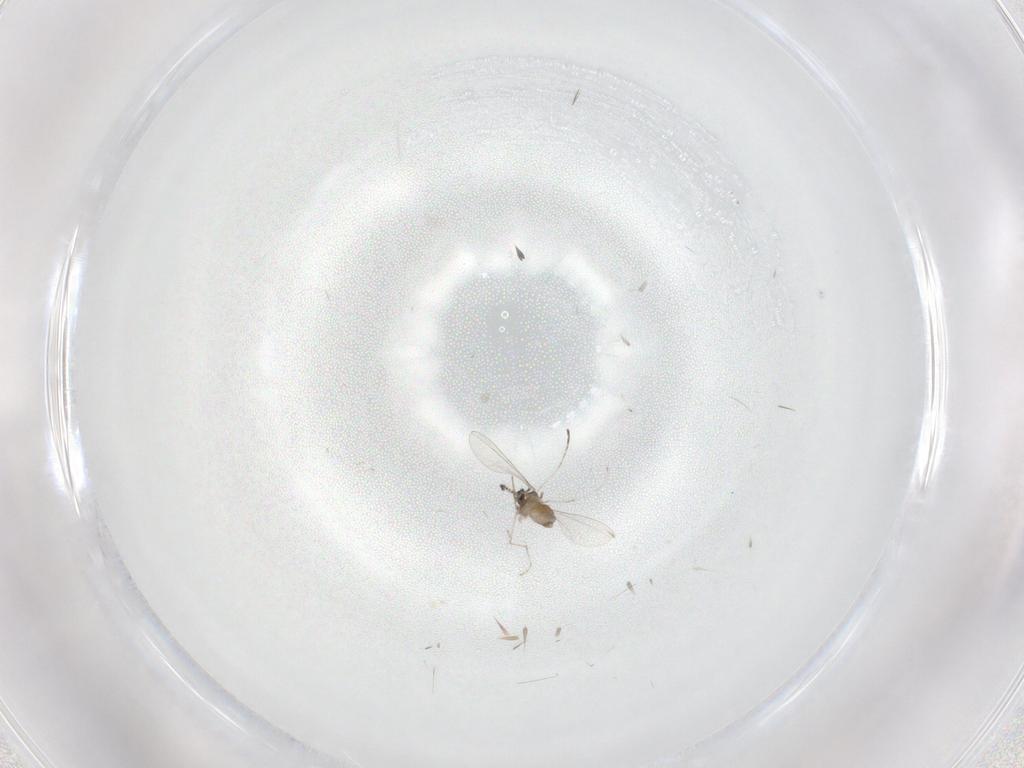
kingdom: Animalia
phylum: Arthropoda
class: Insecta
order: Diptera
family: Cecidomyiidae
